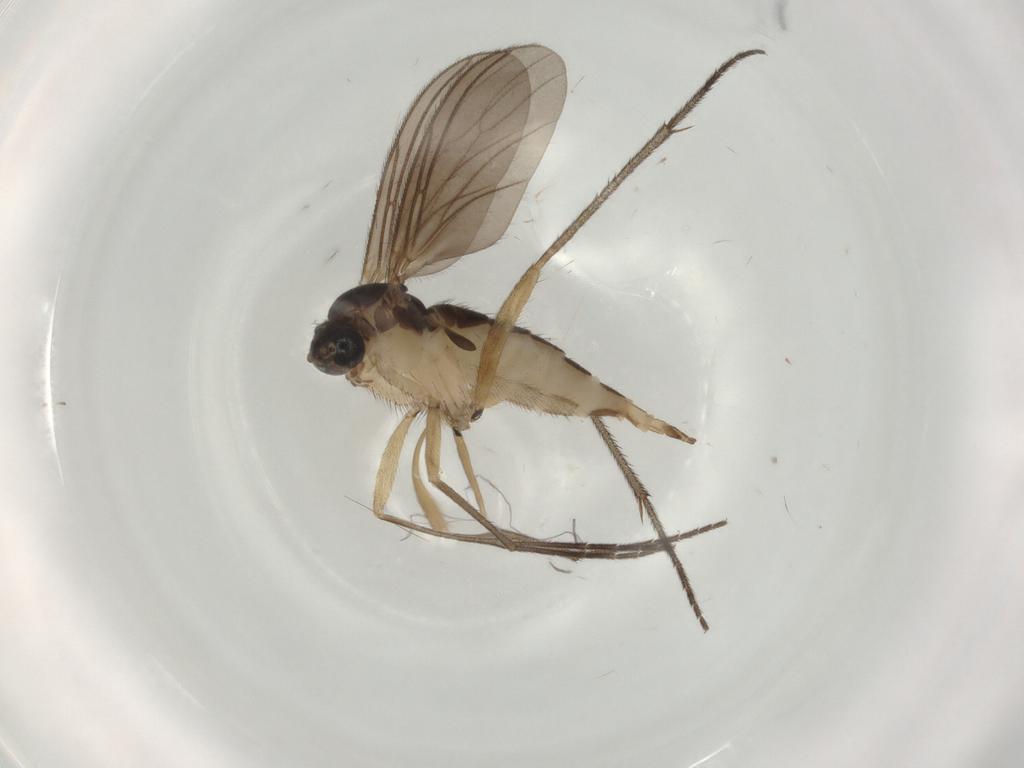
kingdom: Animalia
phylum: Arthropoda
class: Insecta
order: Diptera
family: Sciaridae
